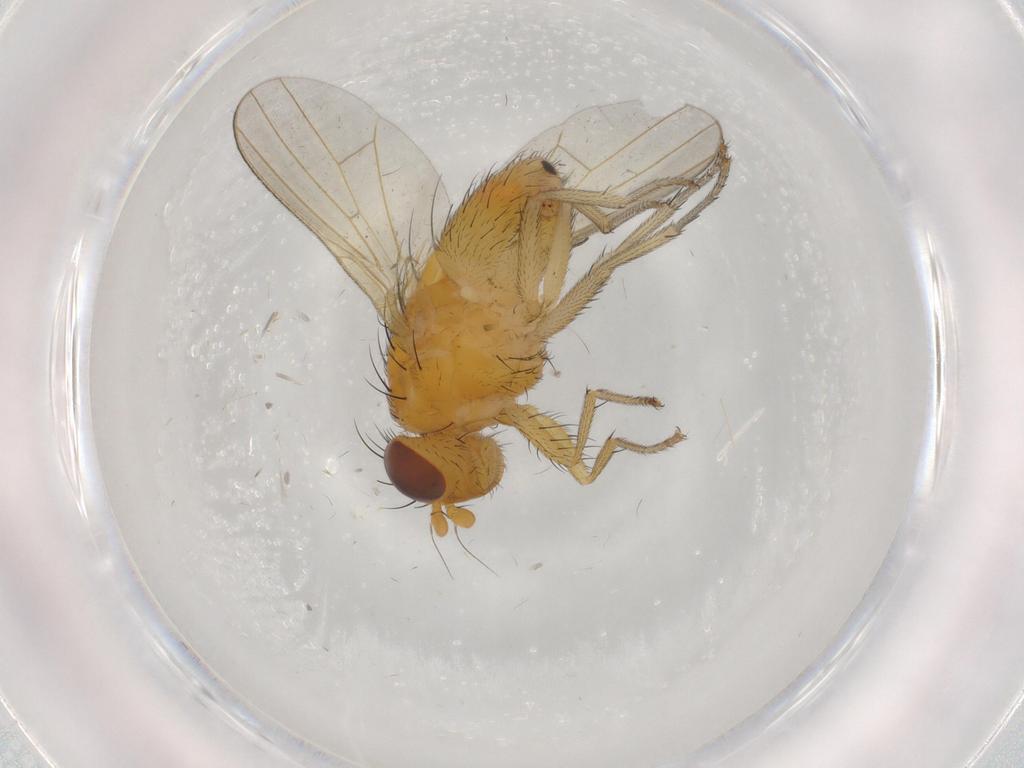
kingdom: Animalia
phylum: Arthropoda
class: Insecta
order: Diptera
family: Lauxaniidae
